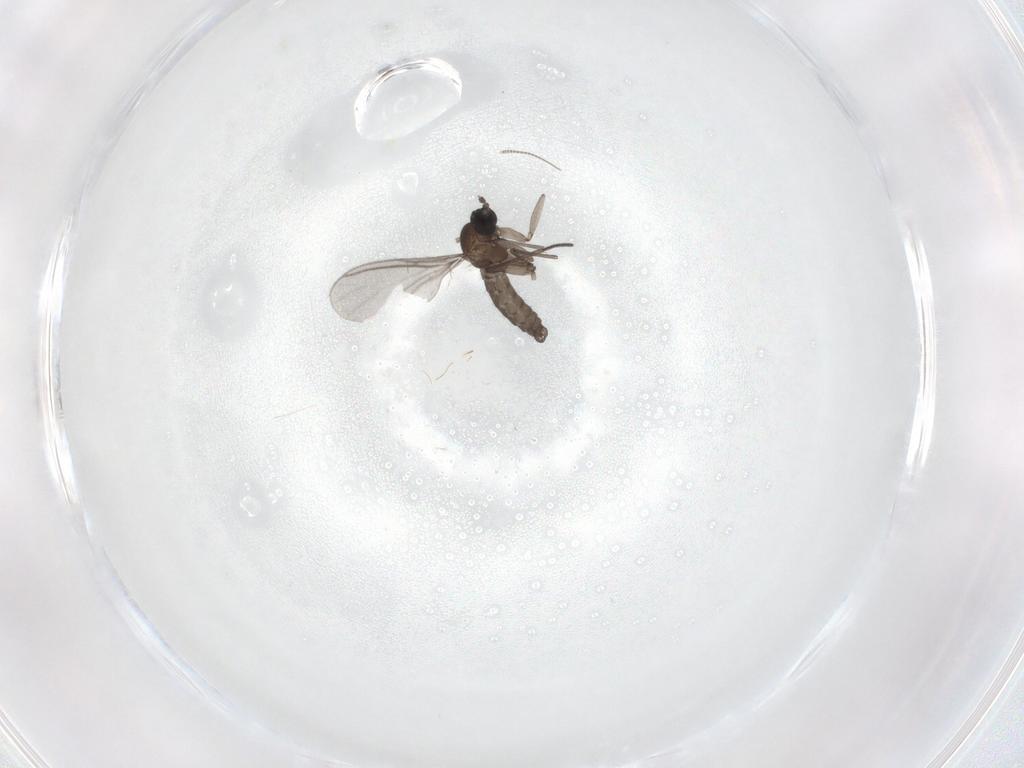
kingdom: Animalia
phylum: Arthropoda
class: Insecta
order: Diptera
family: Chironomidae
